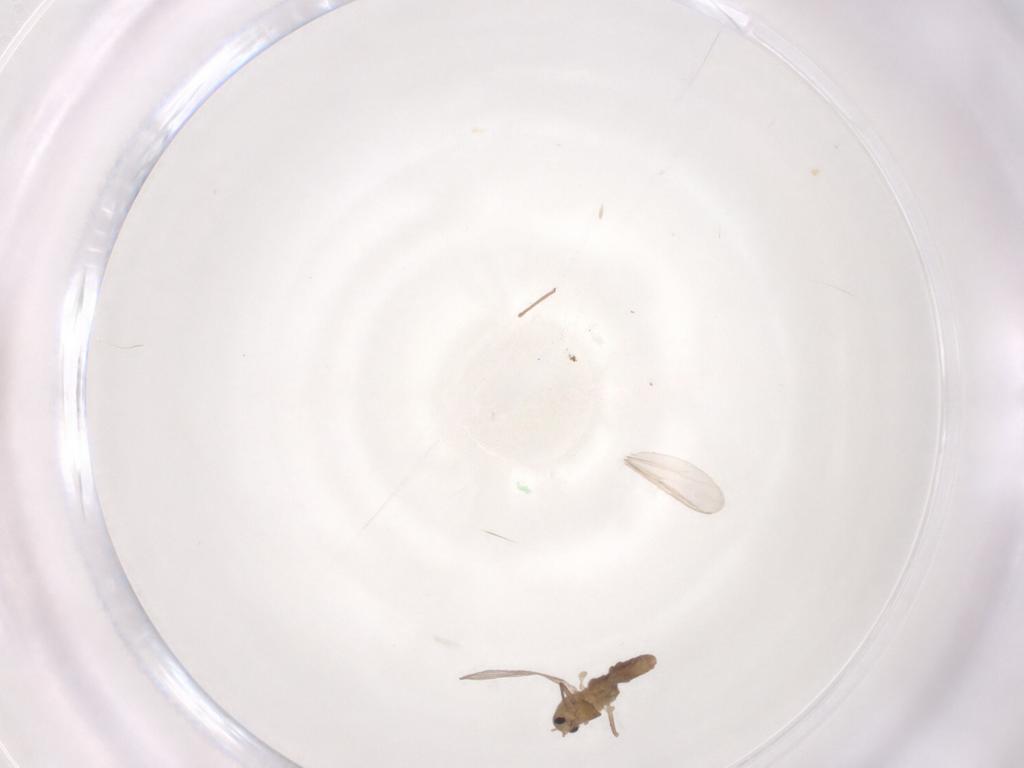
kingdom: Animalia
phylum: Arthropoda
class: Insecta
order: Diptera
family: Chironomidae
